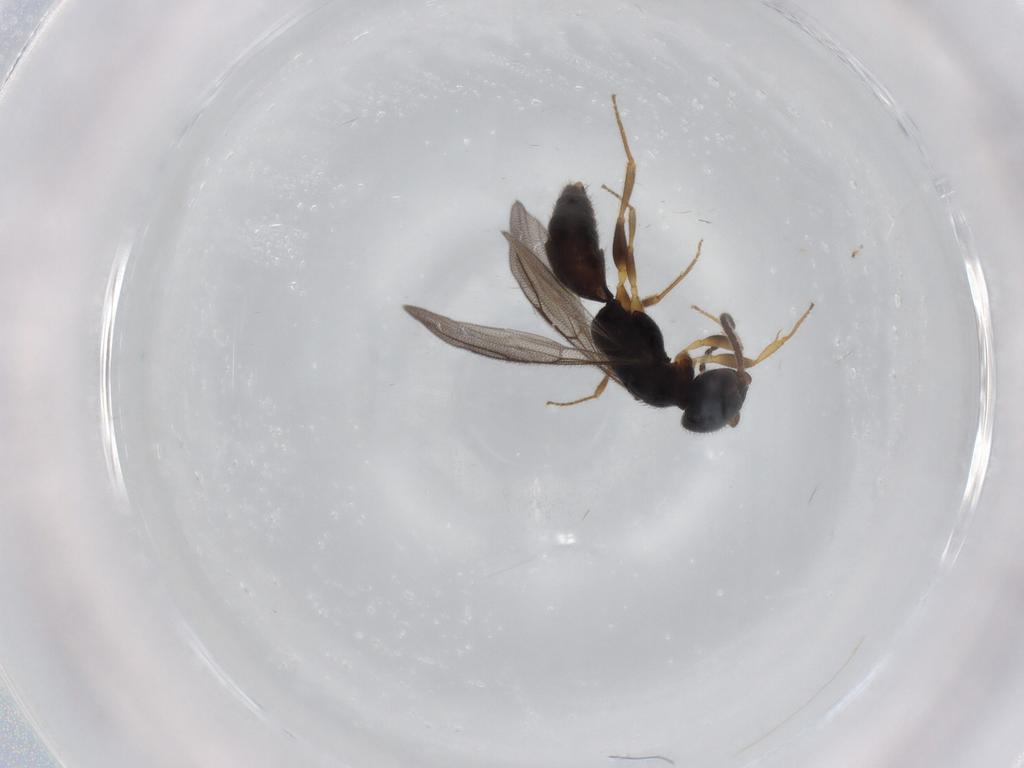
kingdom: Animalia
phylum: Arthropoda
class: Insecta
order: Hymenoptera
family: Bethylidae
